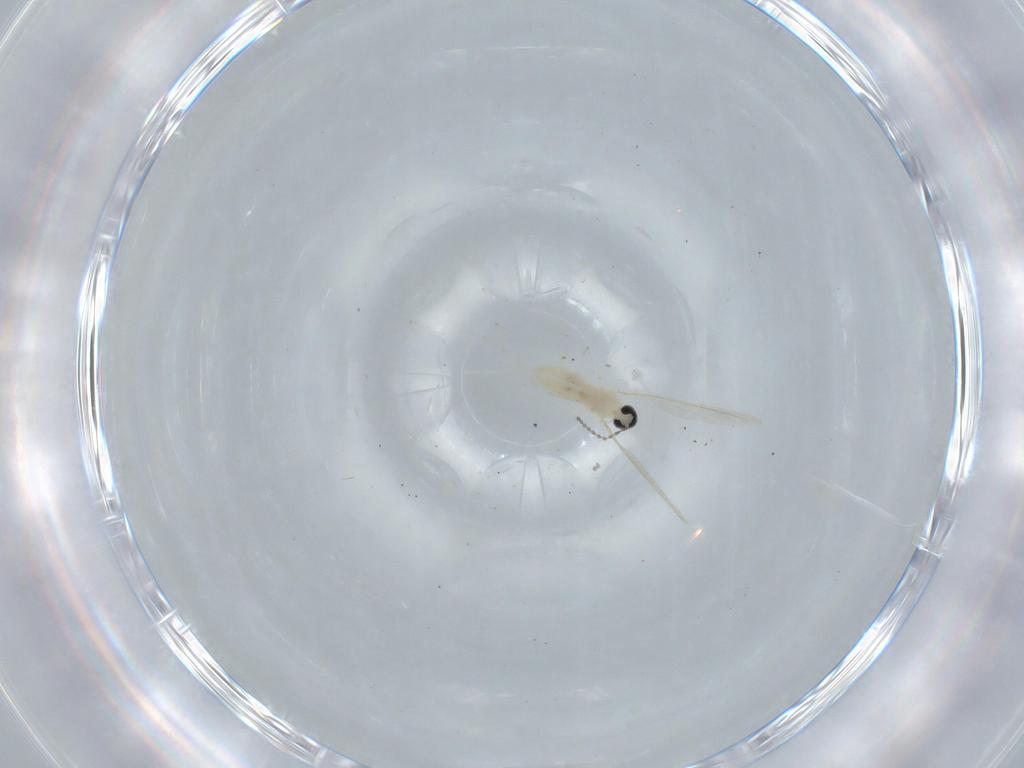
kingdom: Animalia
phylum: Arthropoda
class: Insecta
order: Diptera
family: Cecidomyiidae
